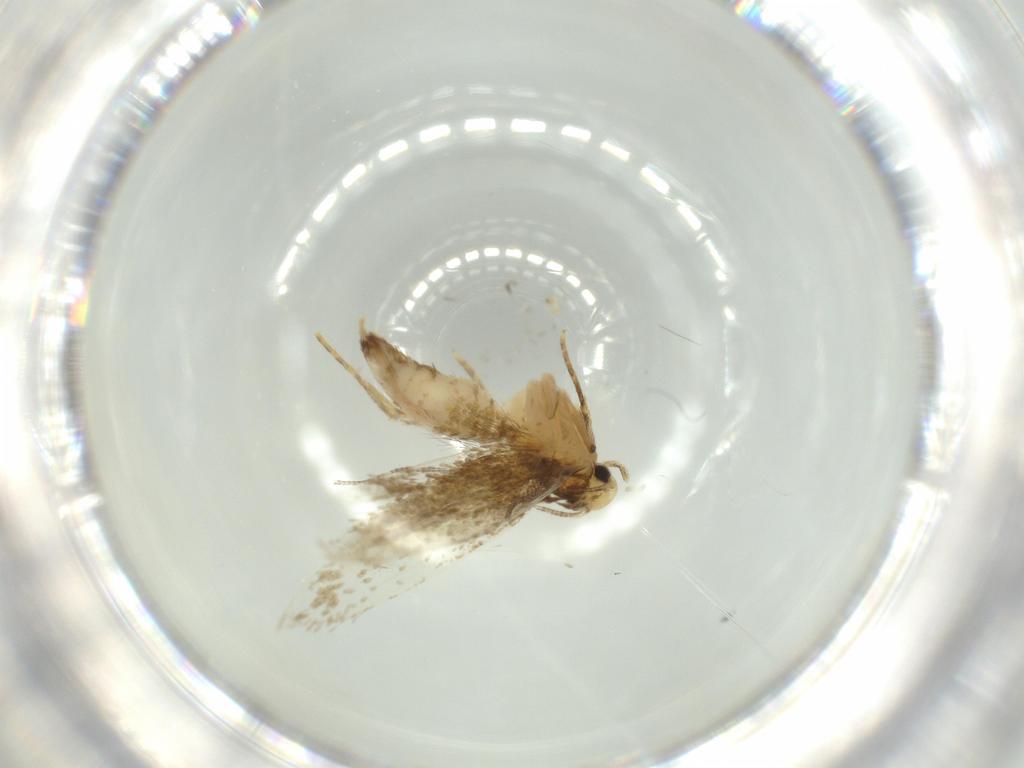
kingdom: Animalia
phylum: Arthropoda
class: Insecta
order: Lepidoptera
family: Tineidae
